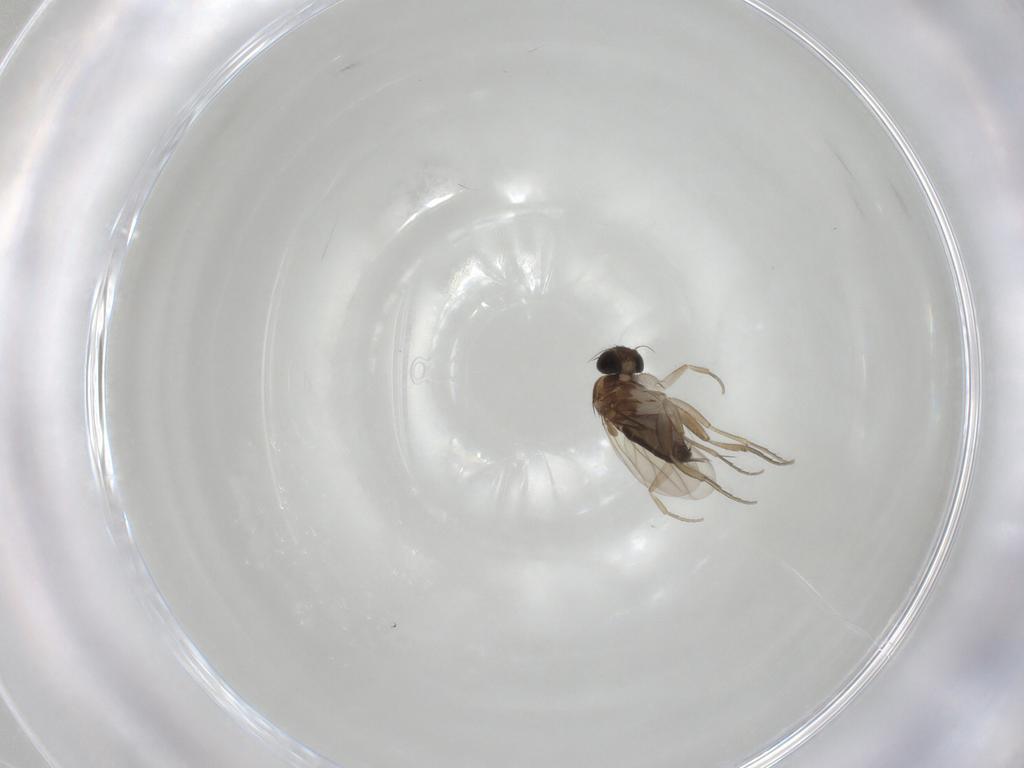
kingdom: Animalia
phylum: Arthropoda
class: Insecta
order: Diptera
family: Phoridae
